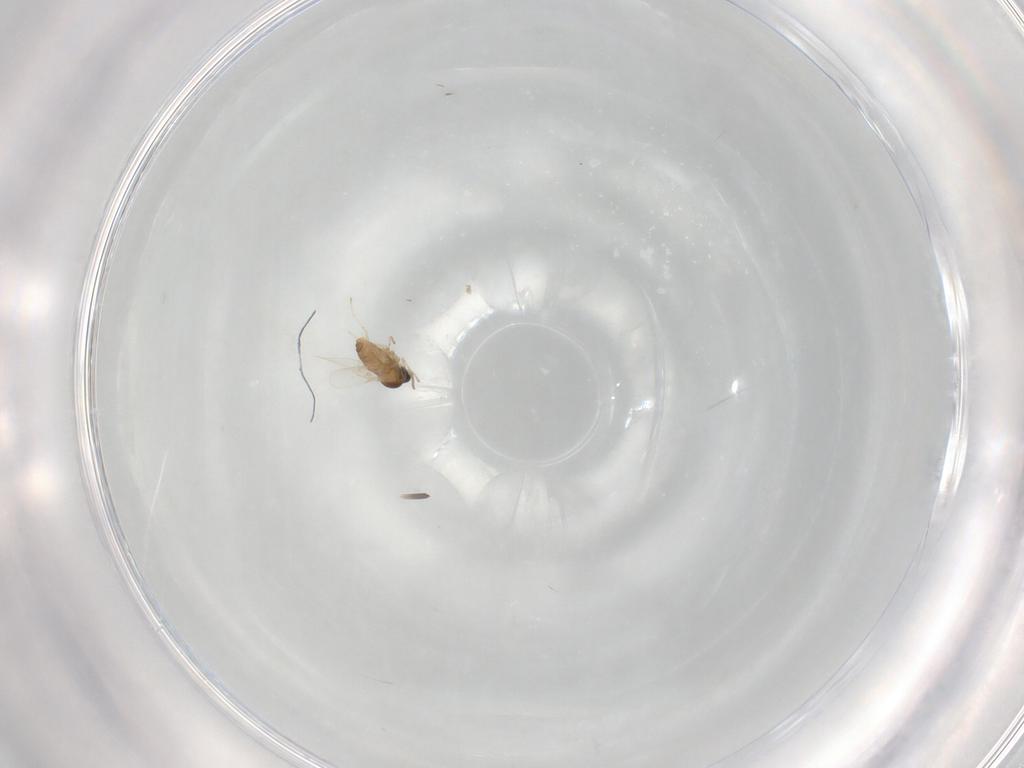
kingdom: Animalia
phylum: Arthropoda
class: Insecta
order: Diptera
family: Cecidomyiidae
